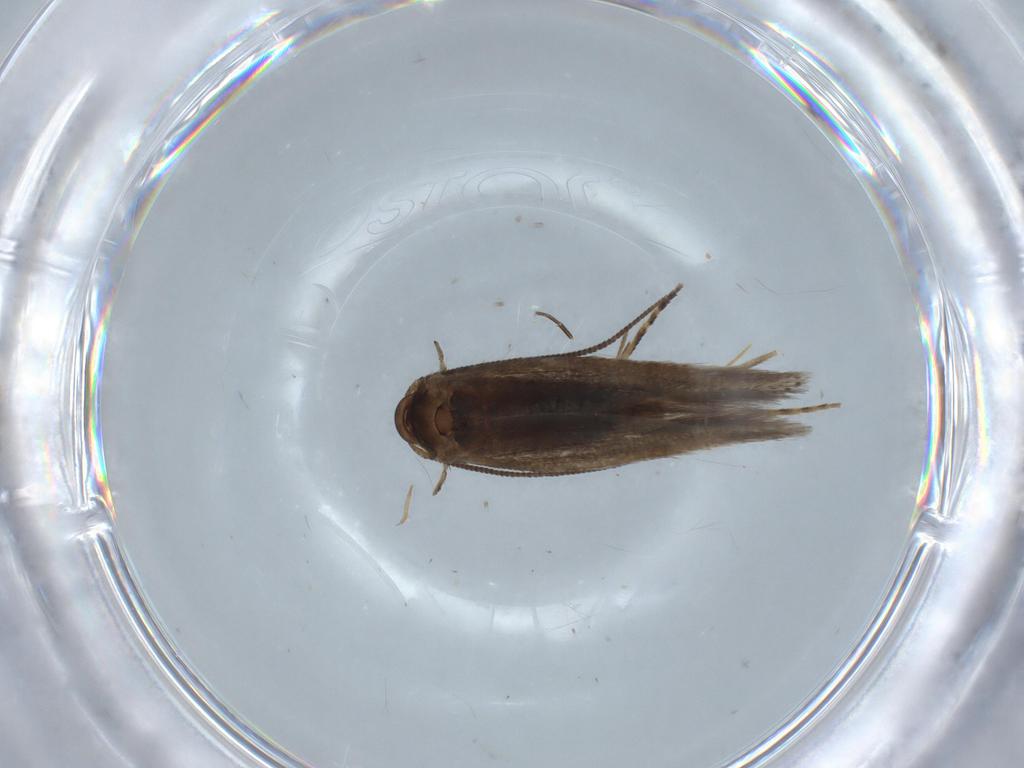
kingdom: Animalia
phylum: Arthropoda
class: Insecta
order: Lepidoptera
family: Elachistidae
